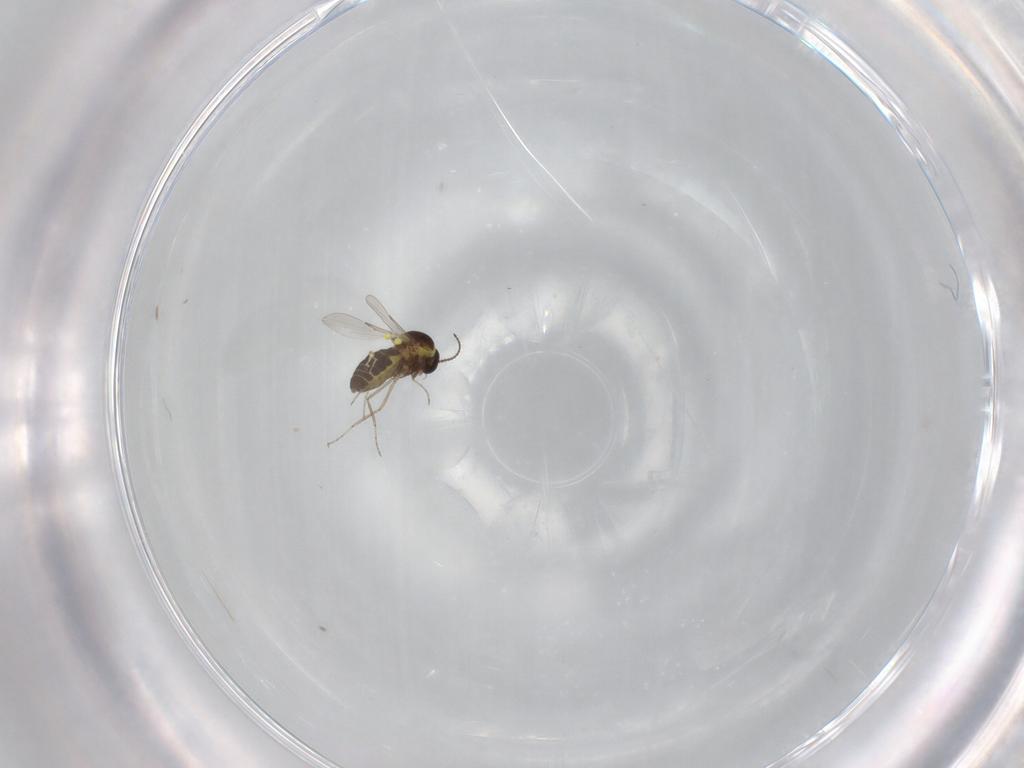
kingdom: Animalia
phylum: Arthropoda
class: Insecta
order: Diptera
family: Ceratopogonidae
